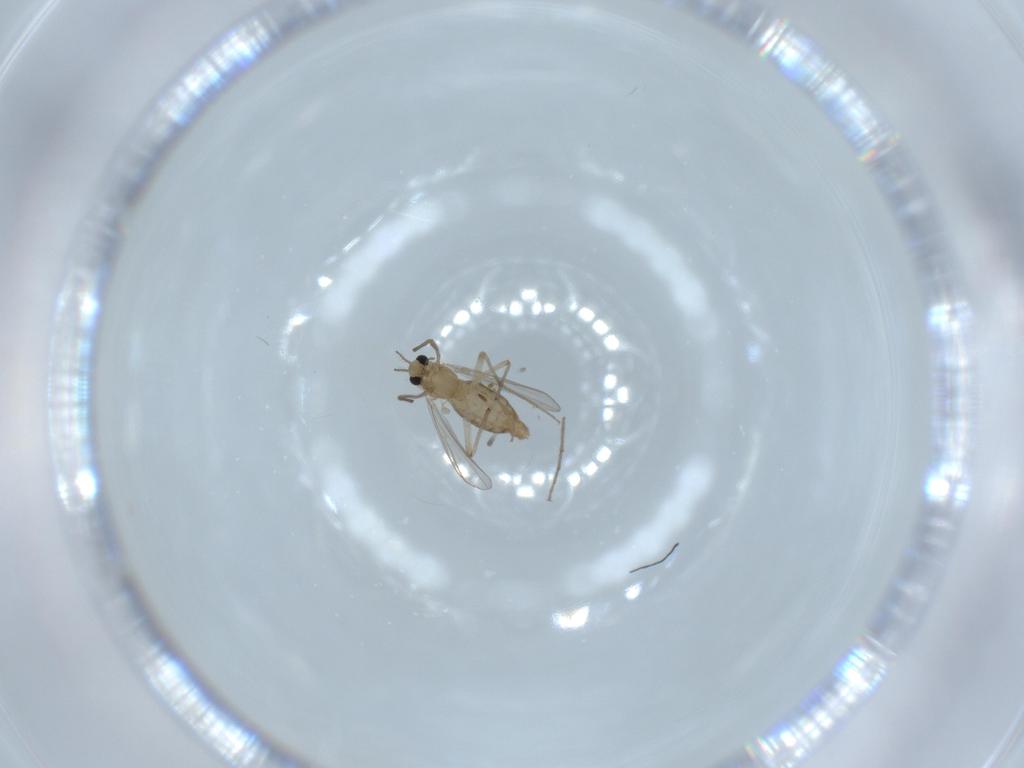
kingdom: Animalia
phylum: Arthropoda
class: Insecta
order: Diptera
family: Chironomidae
